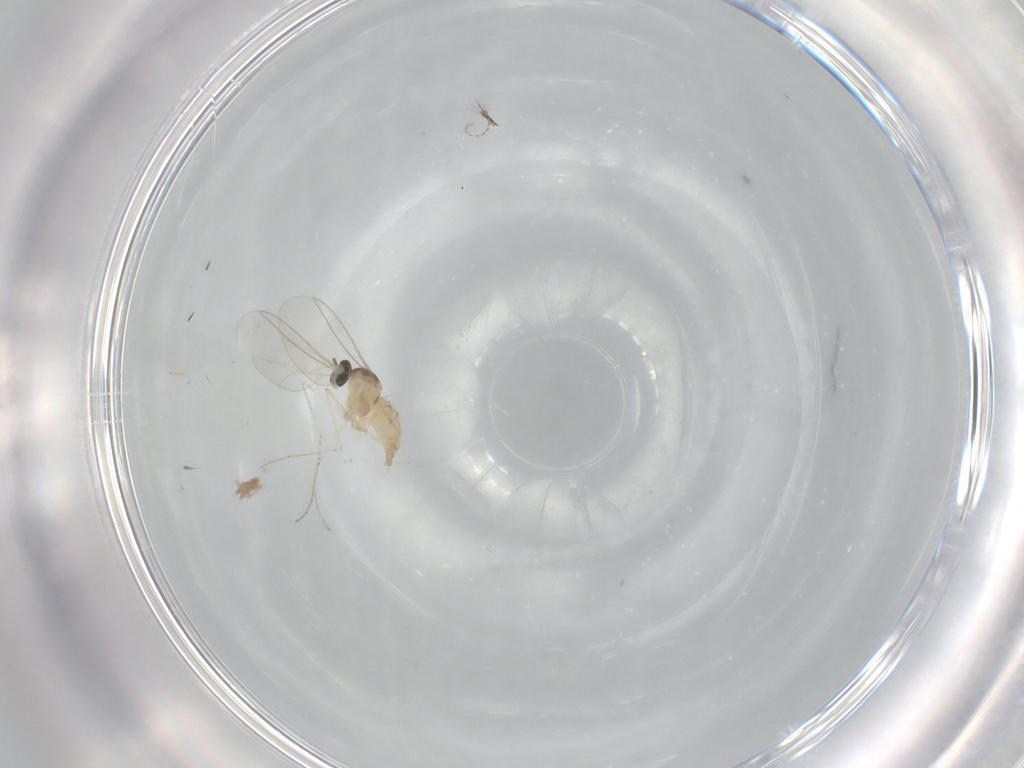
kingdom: Animalia
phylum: Arthropoda
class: Insecta
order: Diptera
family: Cecidomyiidae
